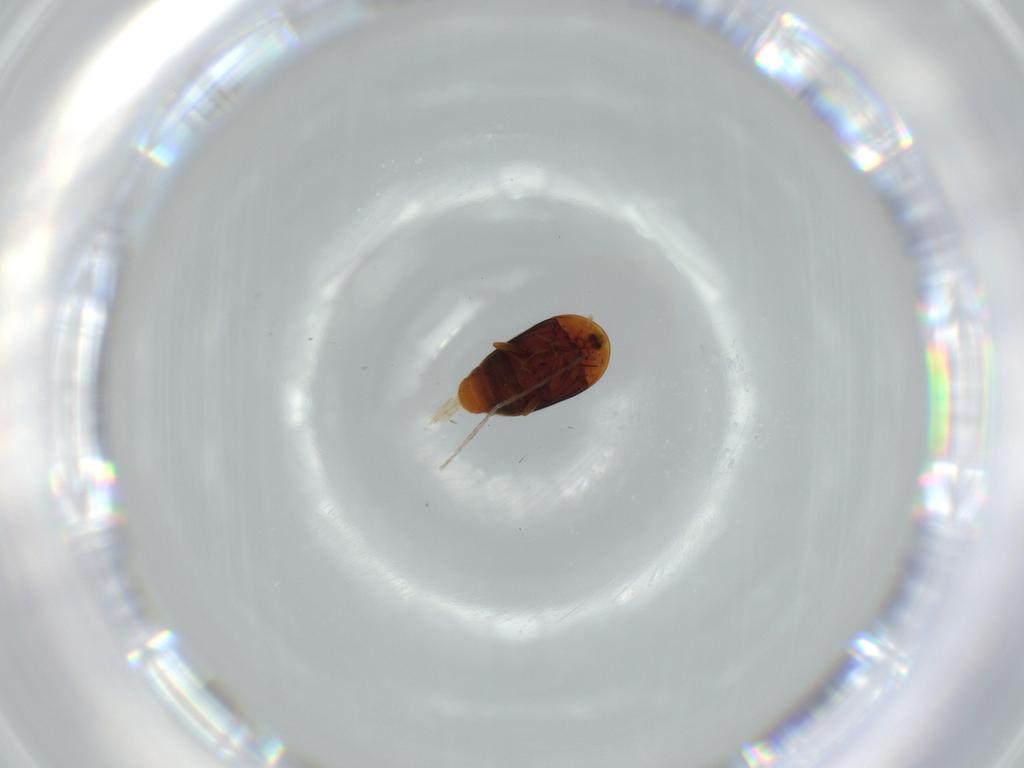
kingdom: Animalia
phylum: Arthropoda
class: Insecta
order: Coleoptera
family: Corylophidae
